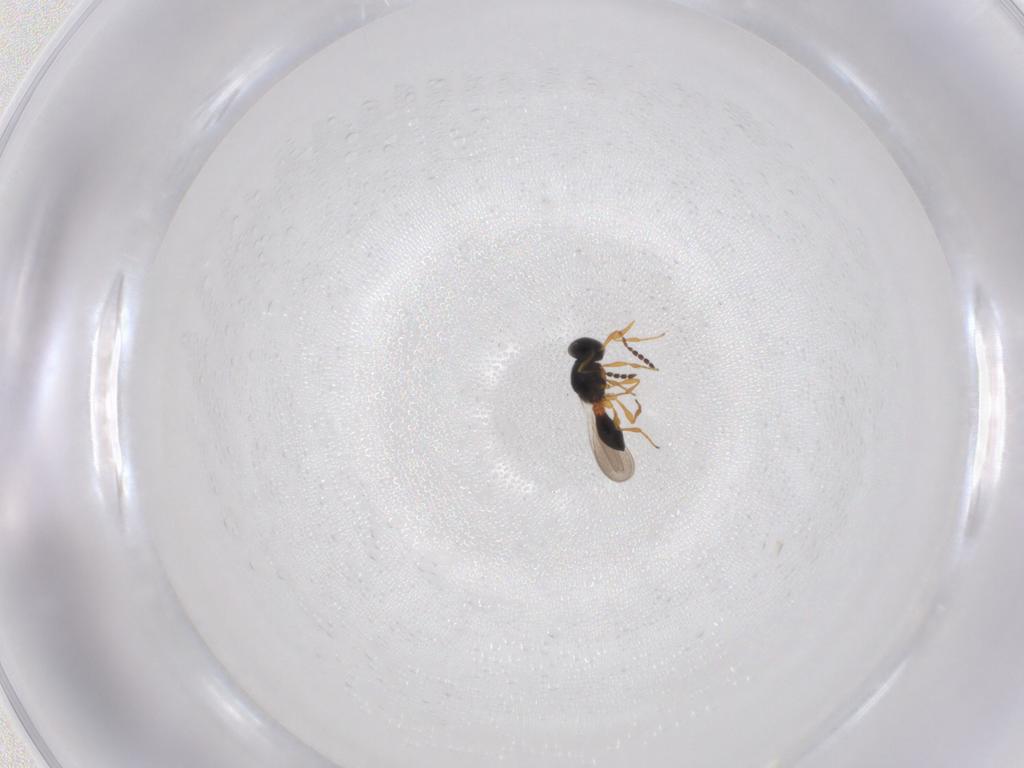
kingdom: Animalia
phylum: Arthropoda
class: Insecta
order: Hymenoptera
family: Platygastridae
